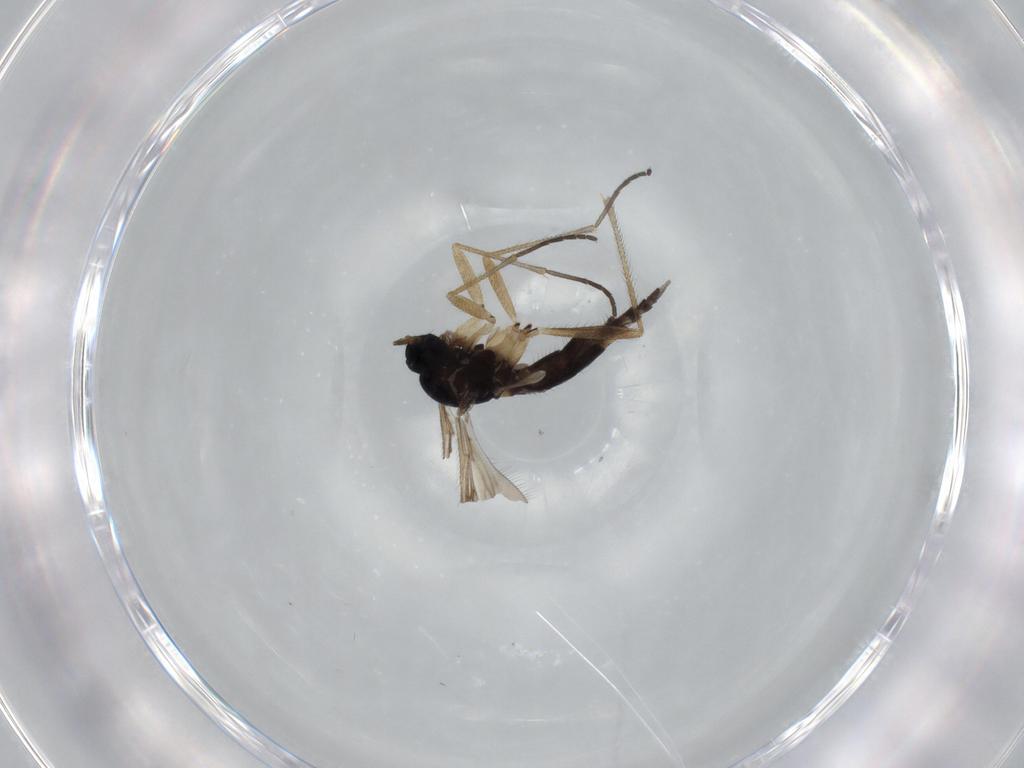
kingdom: Animalia
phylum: Arthropoda
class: Insecta
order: Diptera
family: Sciaridae
